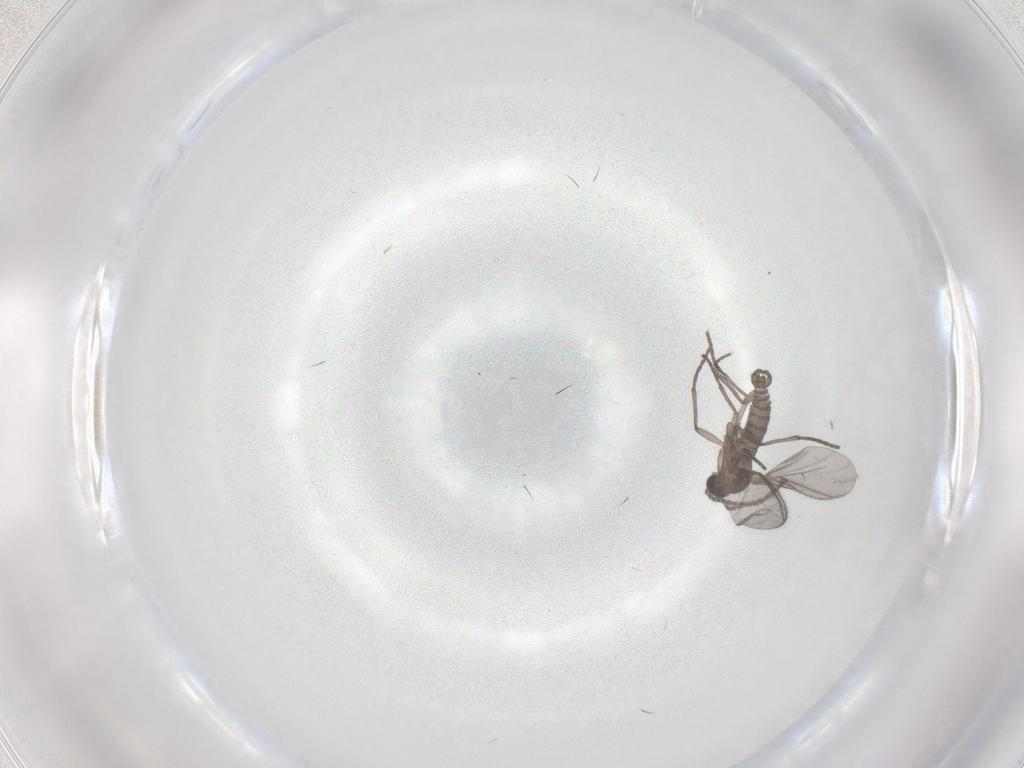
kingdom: Animalia
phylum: Arthropoda
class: Insecta
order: Diptera
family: Sciaridae
